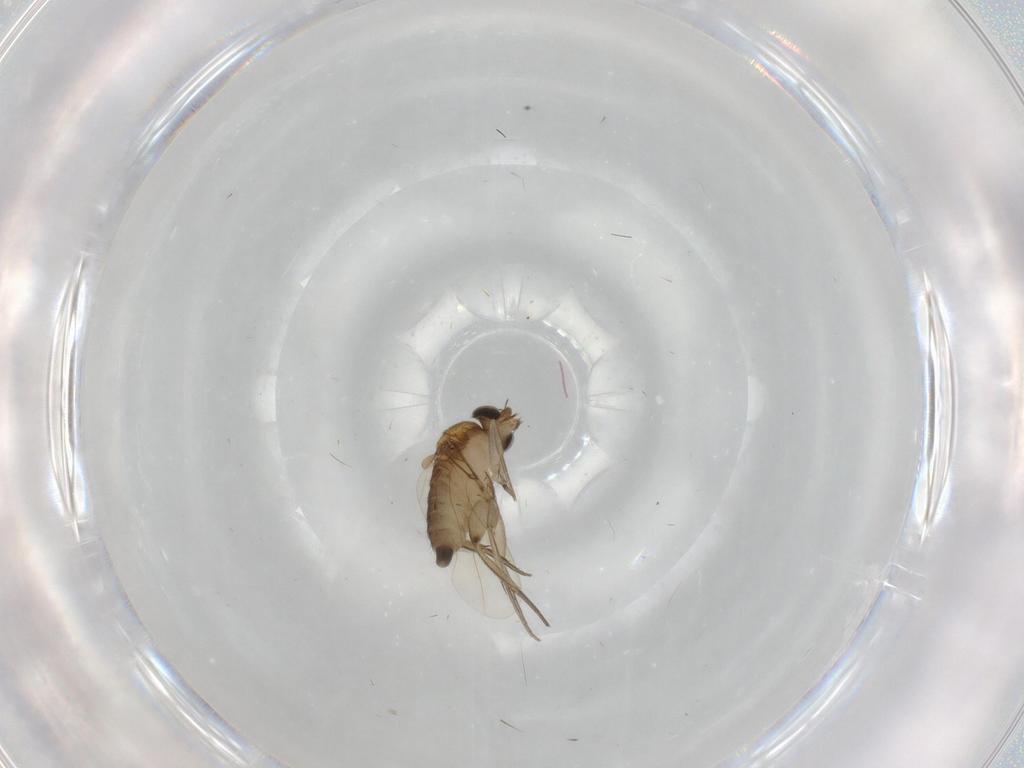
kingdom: Animalia
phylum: Arthropoda
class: Insecta
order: Diptera
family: Phoridae
